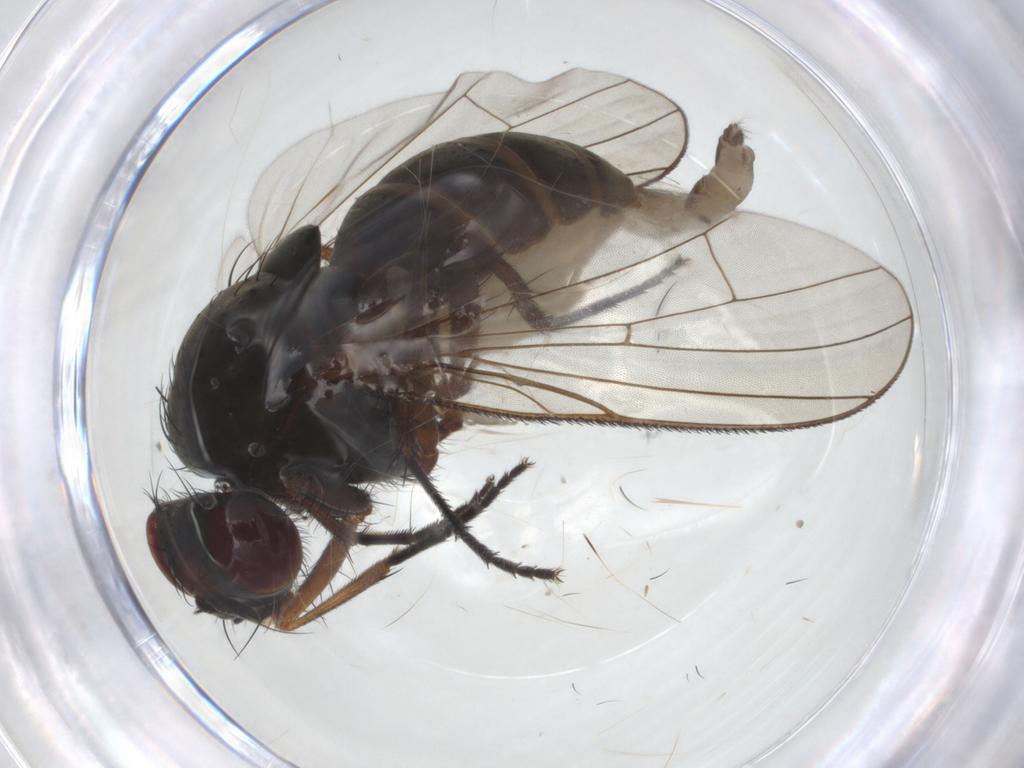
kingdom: Animalia
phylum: Arthropoda
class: Insecta
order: Diptera
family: Anthomyiidae
